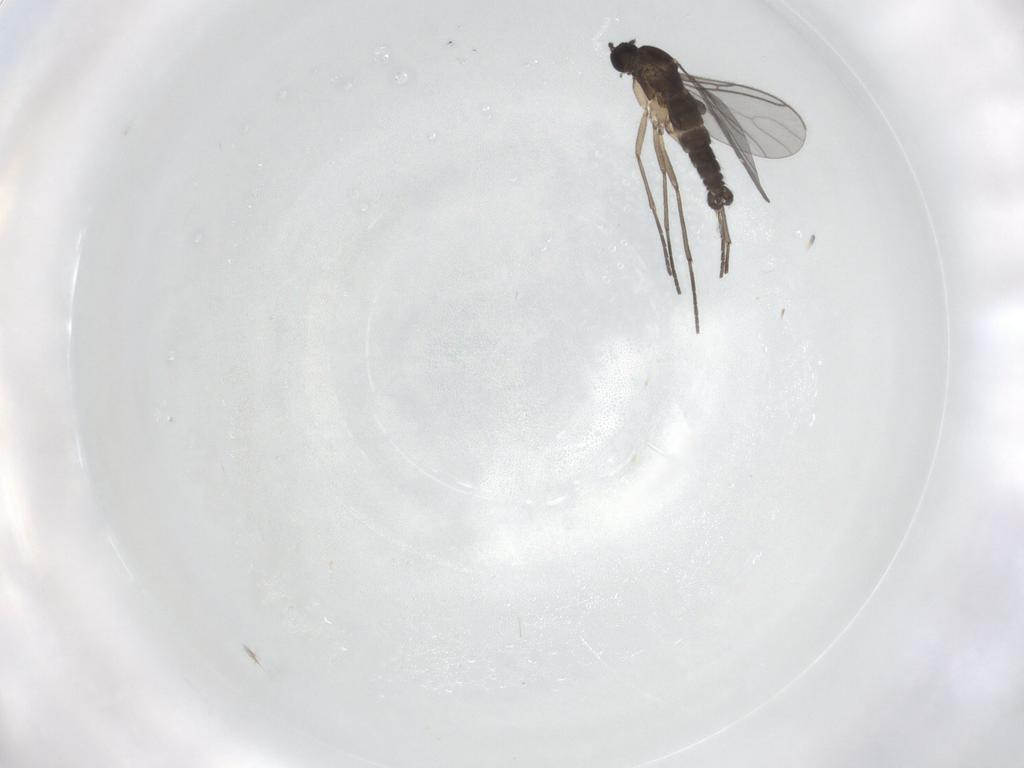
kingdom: Animalia
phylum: Arthropoda
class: Insecta
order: Diptera
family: Sciaridae
